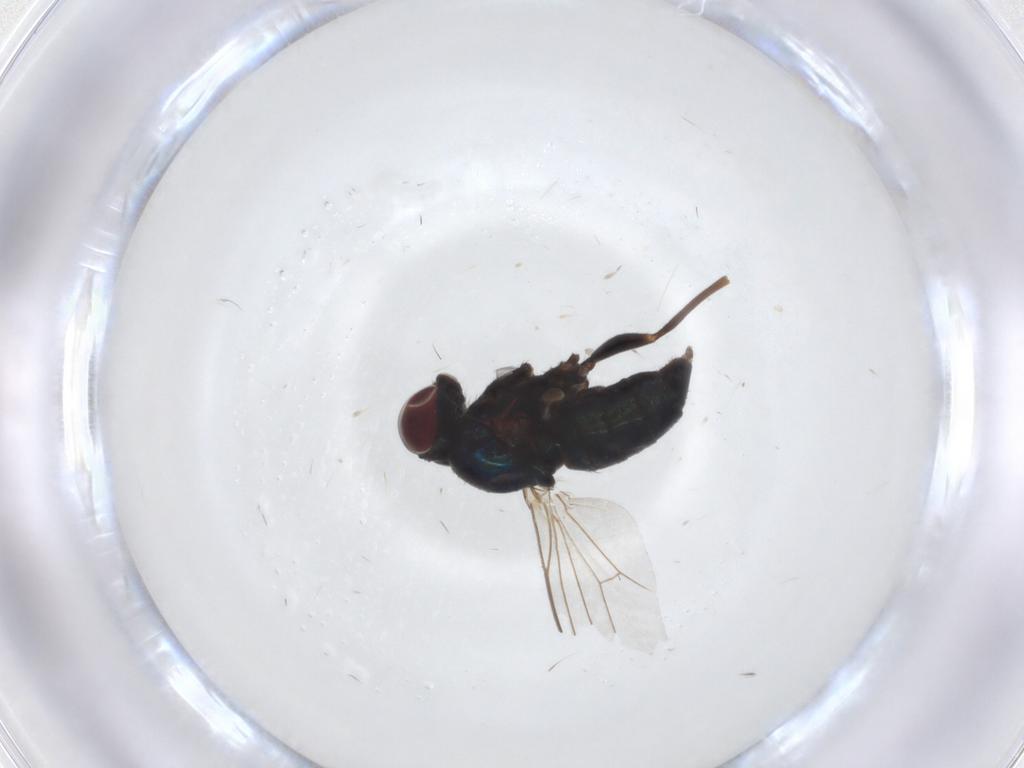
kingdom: Animalia
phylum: Arthropoda
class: Insecta
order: Diptera
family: Dolichopodidae
